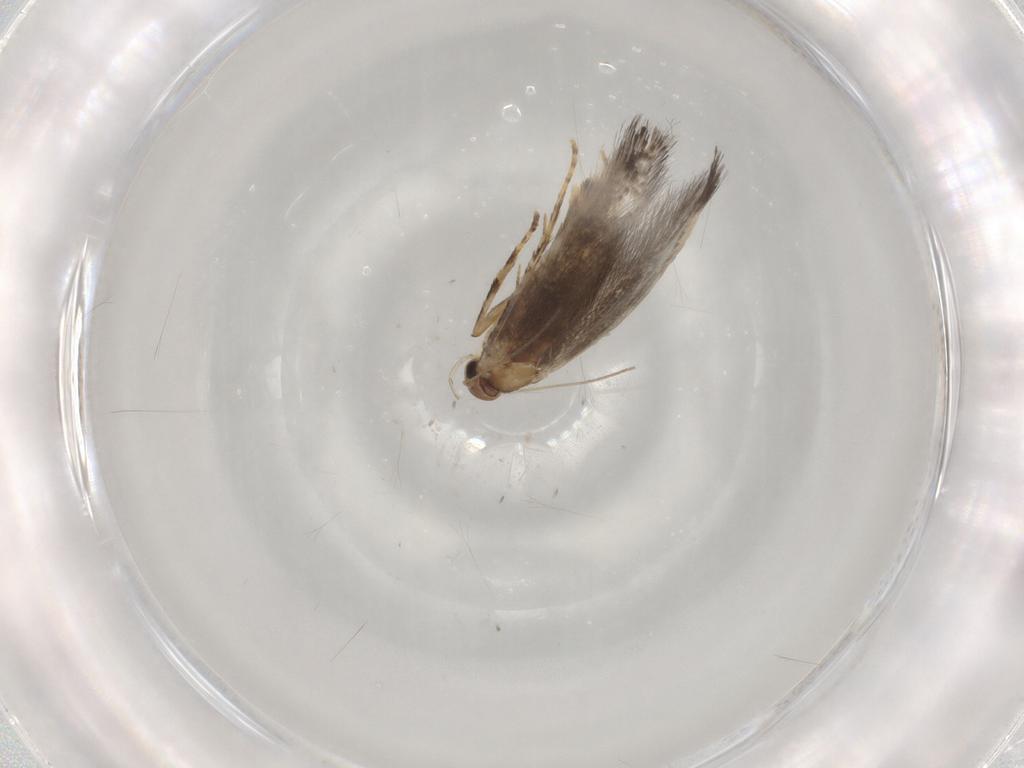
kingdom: Animalia
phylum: Arthropoda
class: Insecta
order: Lepidoptera
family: Elachistidae
